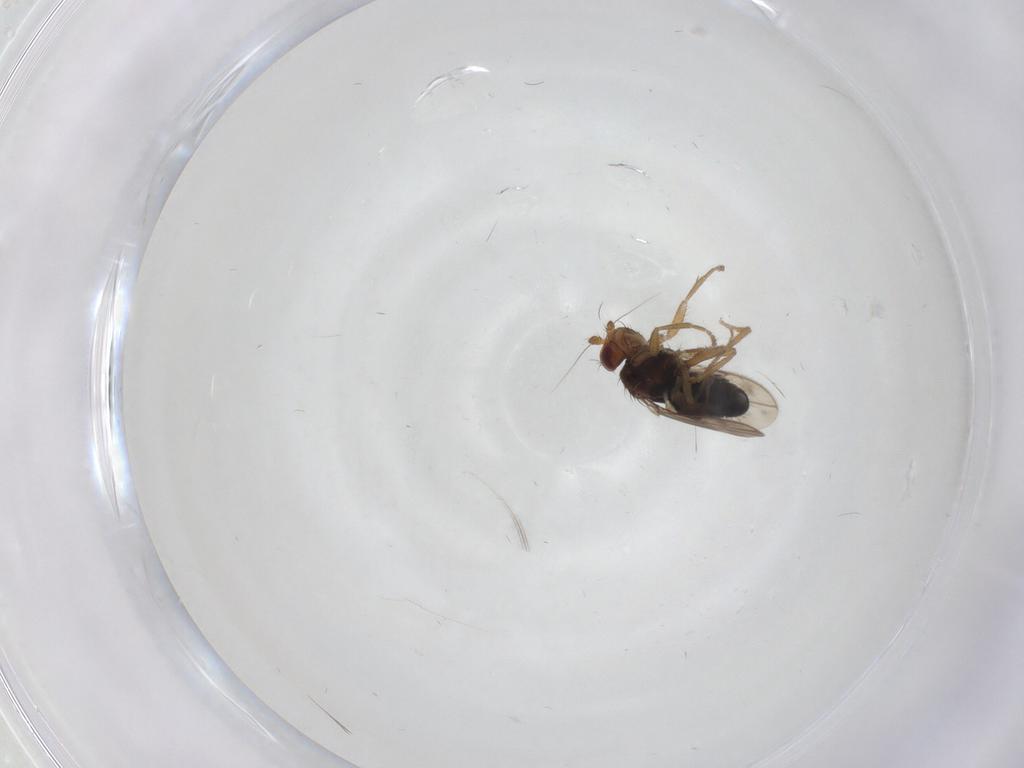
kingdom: Animalia
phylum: Arthropoda
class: Insecta
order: Diptera
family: Sphaeroceridae
